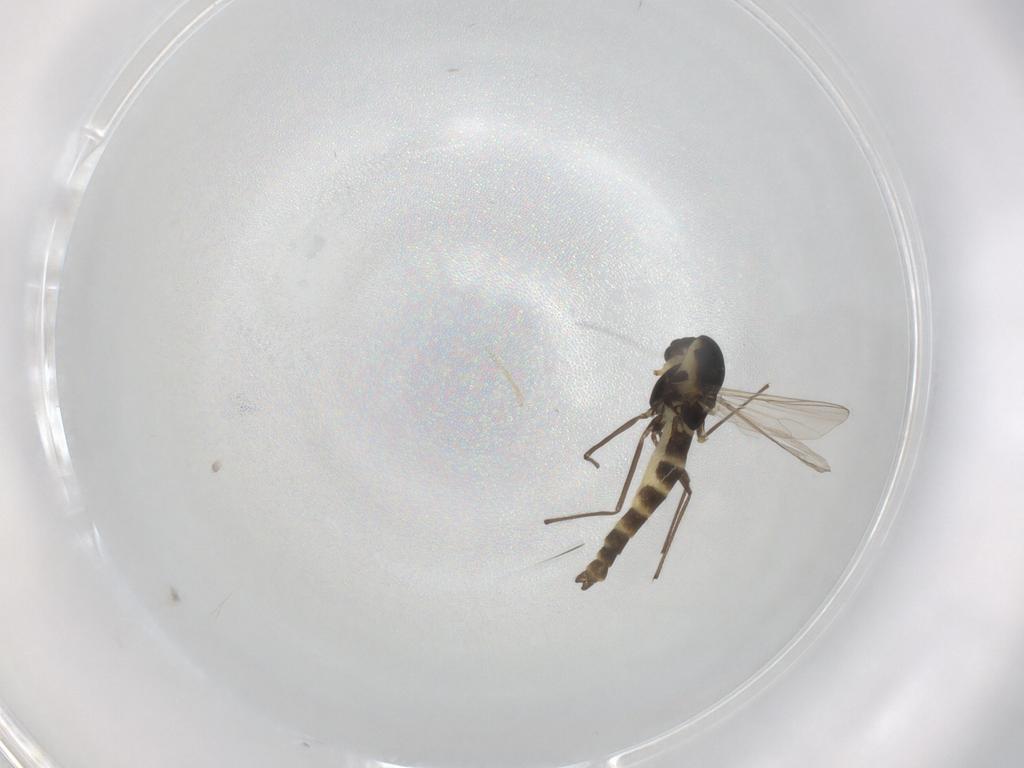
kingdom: Animalia
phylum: Arthropoda
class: Insecta
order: Diptera
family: Chironomidae
